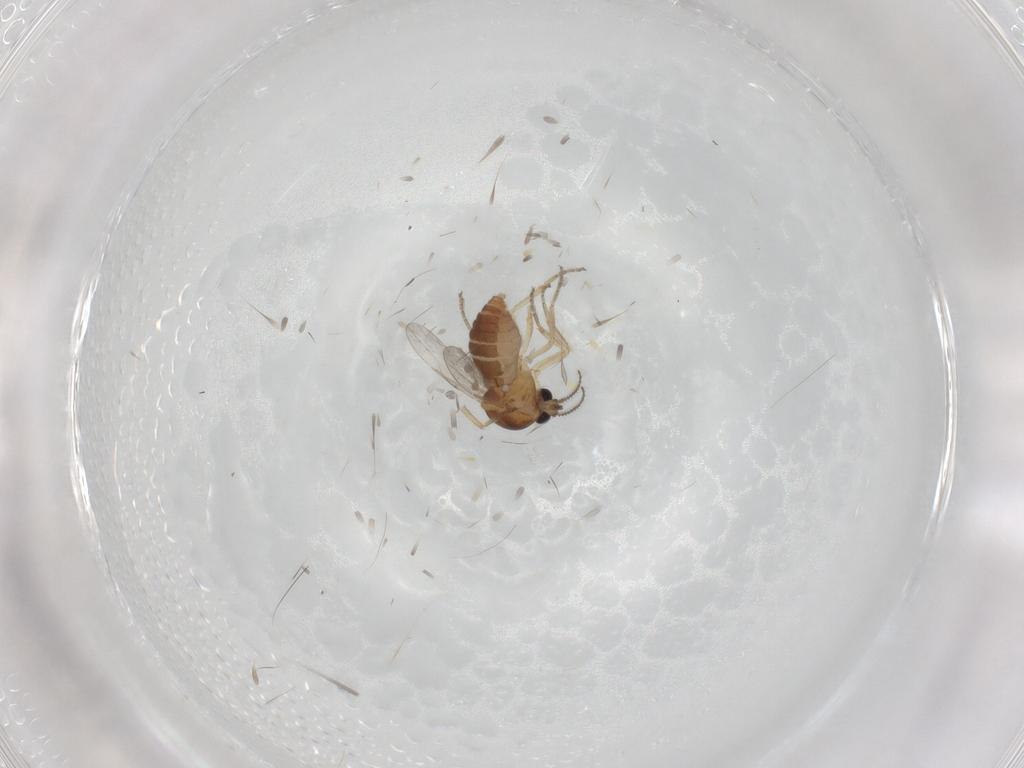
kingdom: Animalia
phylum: Arthropoda
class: Insecta
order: Diptera
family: Ceratopogonidae
